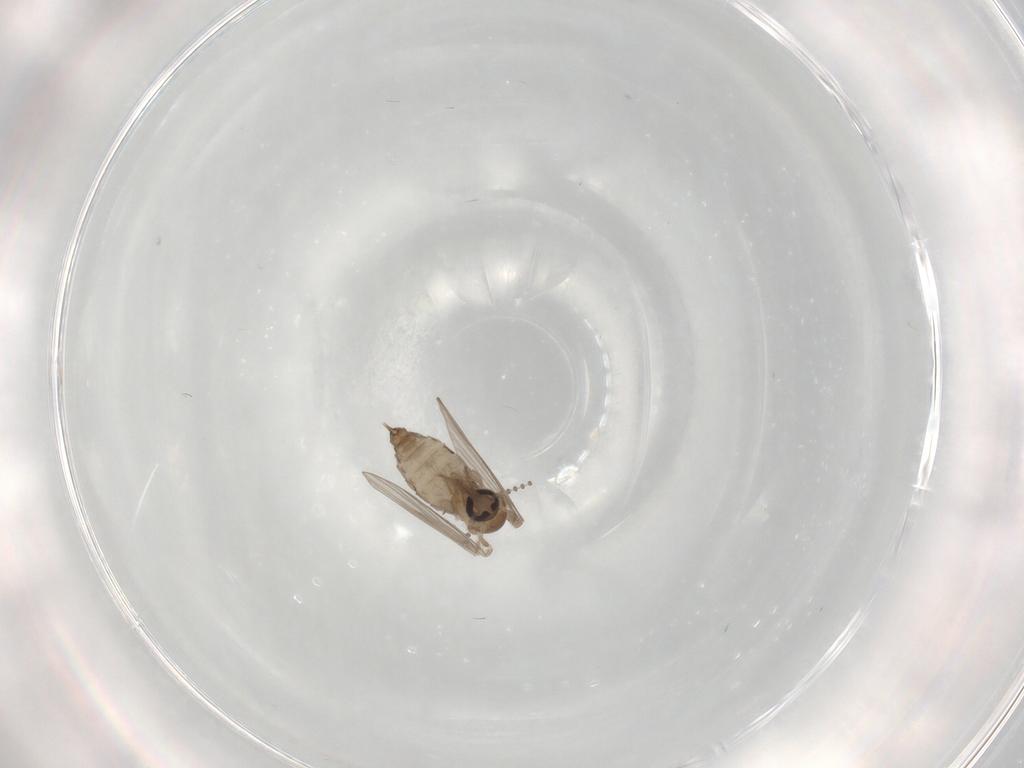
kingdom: Animalia
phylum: Arthropoda
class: Insecta
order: Diptera
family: Psychodidae
